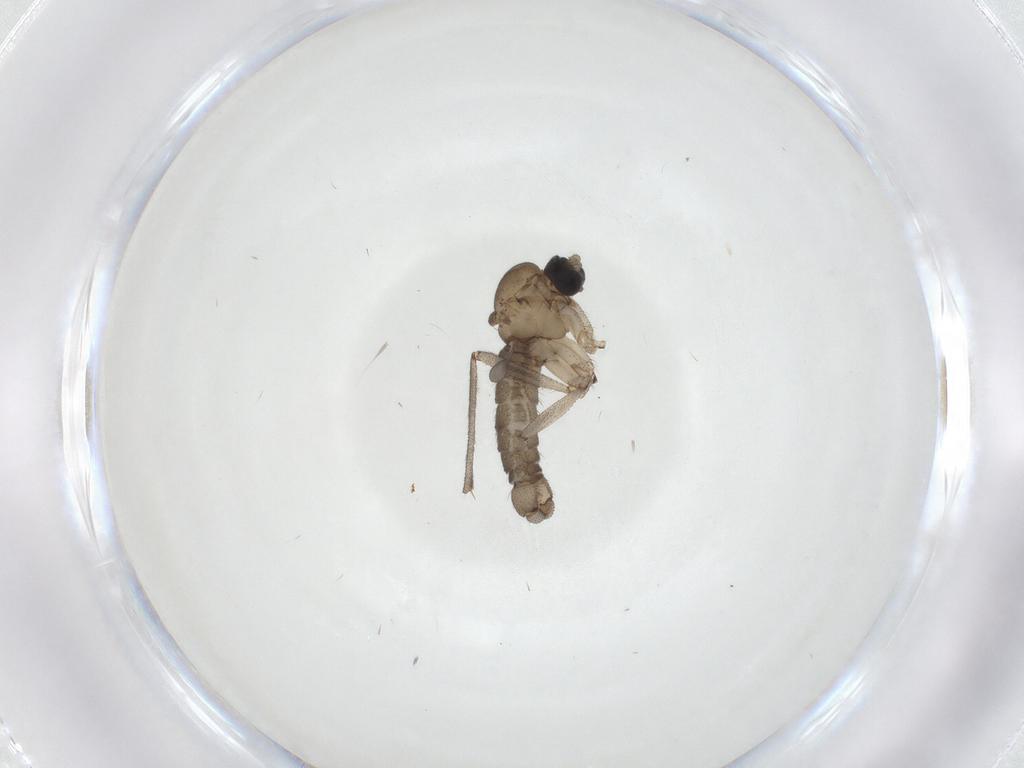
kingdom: Animalia
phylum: Arthropoda
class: Insecta
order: Diptera
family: Sciaridae
